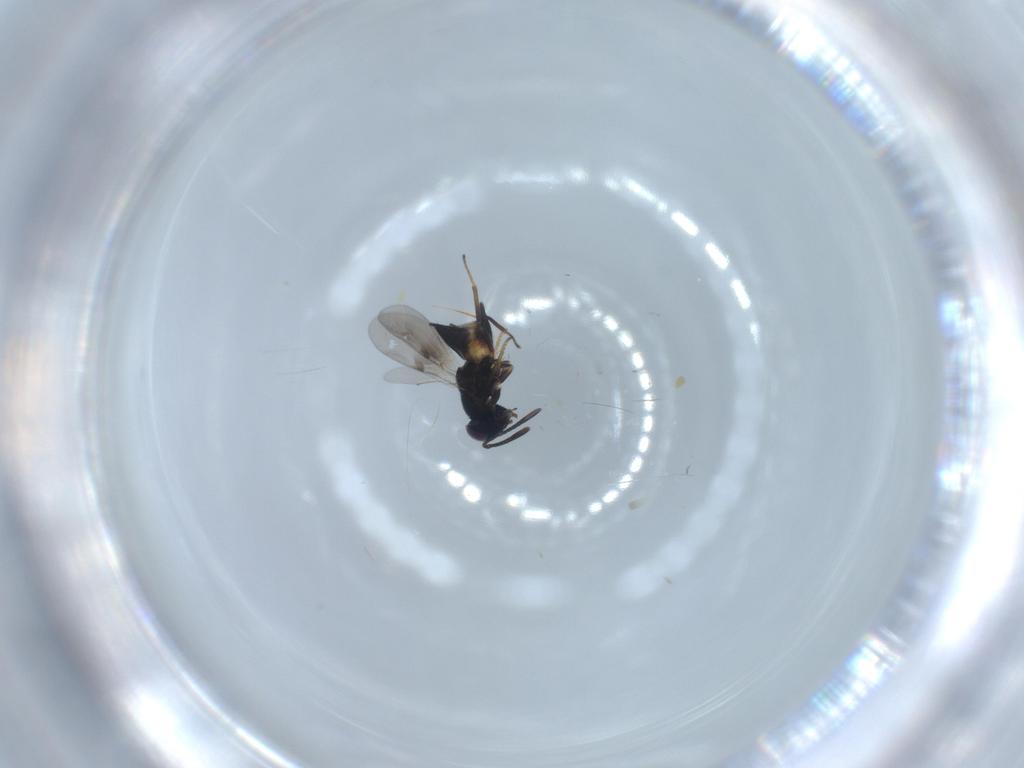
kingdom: Animalia
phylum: Arthropoda
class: Insecta
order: Hymenoptera
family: Encyrtidae
